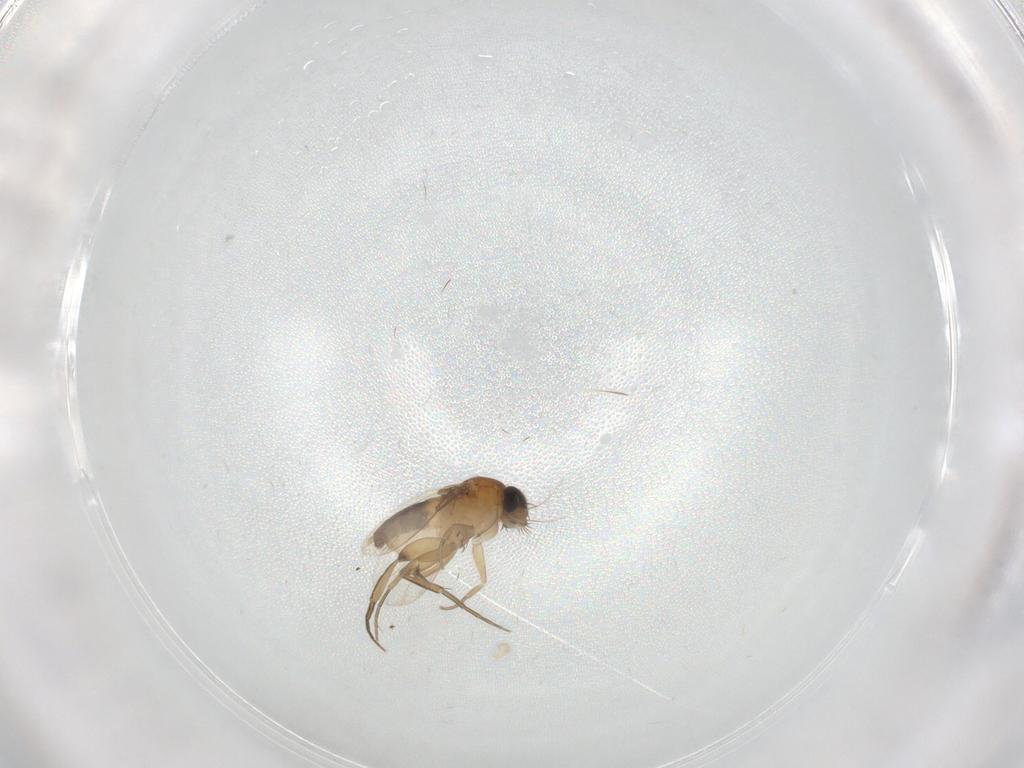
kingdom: Animalia
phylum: Arthropoda
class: Insecta
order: Diptera
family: Phoridae
